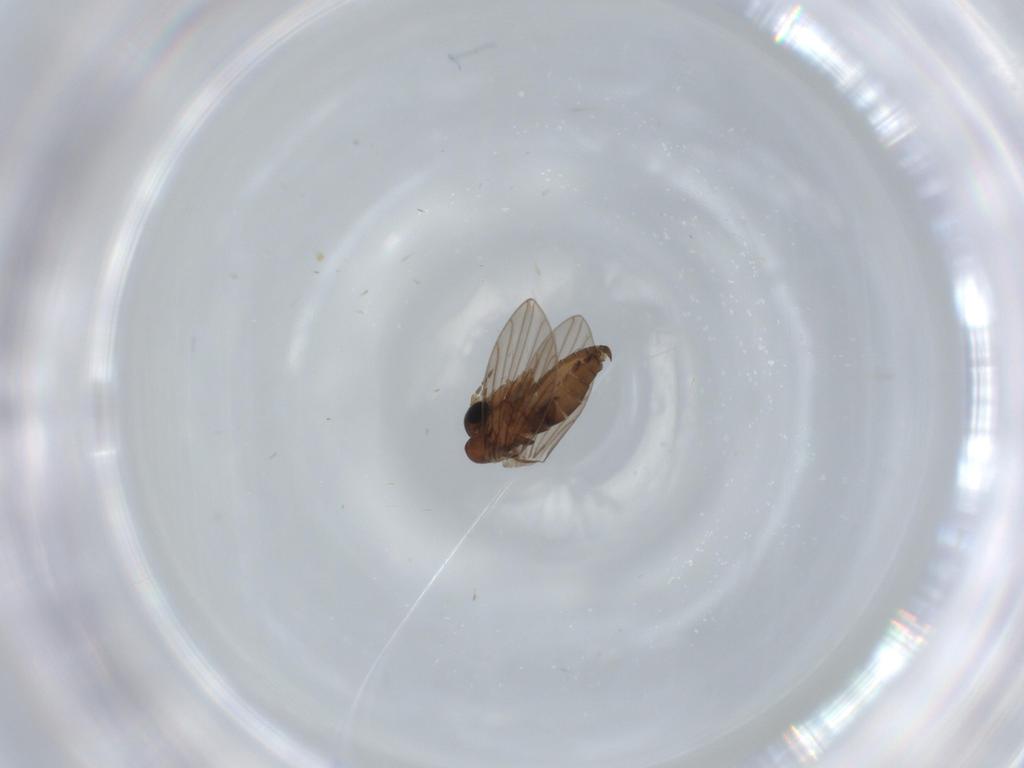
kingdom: Animalia
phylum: Arthropoda
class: Insecta
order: Diptera
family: Psychodidae
